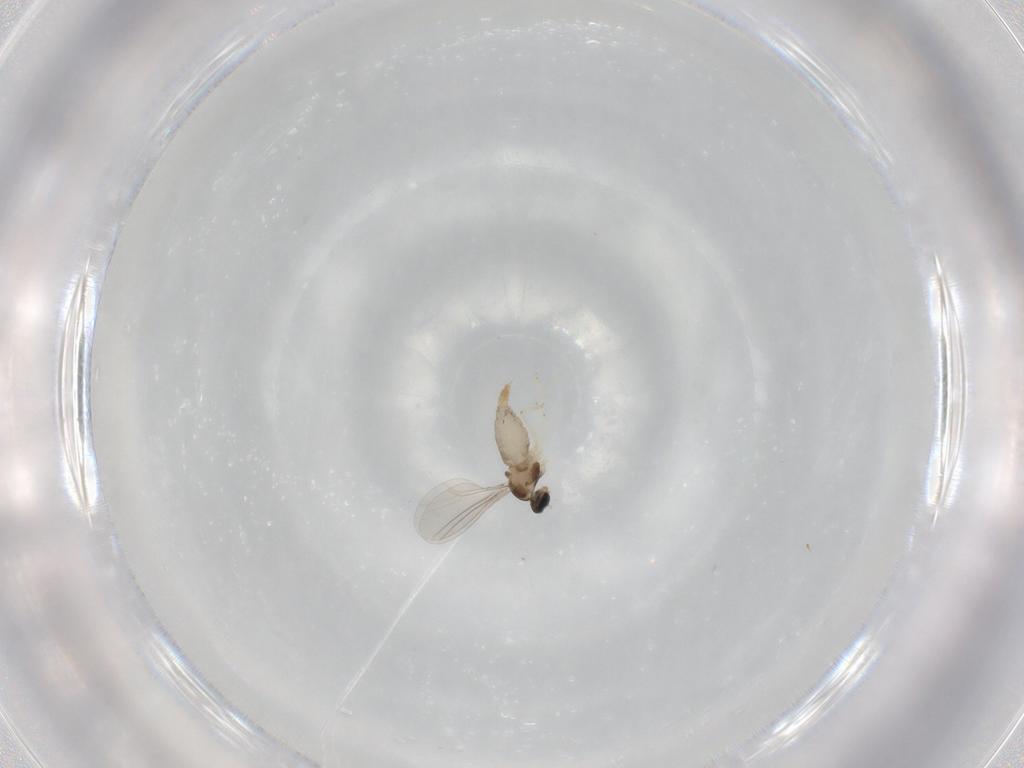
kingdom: Animalia
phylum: Arthropoda
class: Insecta
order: Diptera
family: Cecidomyiidae
